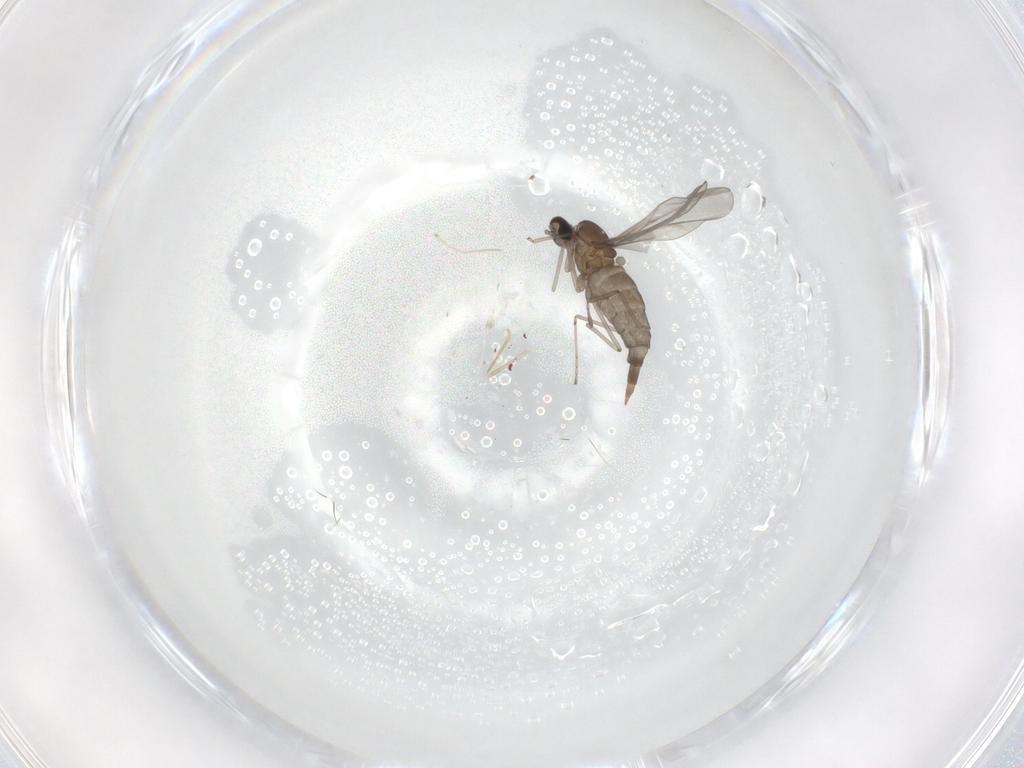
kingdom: Animalia
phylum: Arthropoda
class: Insecta
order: Diptera
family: Cecidomyiidae
